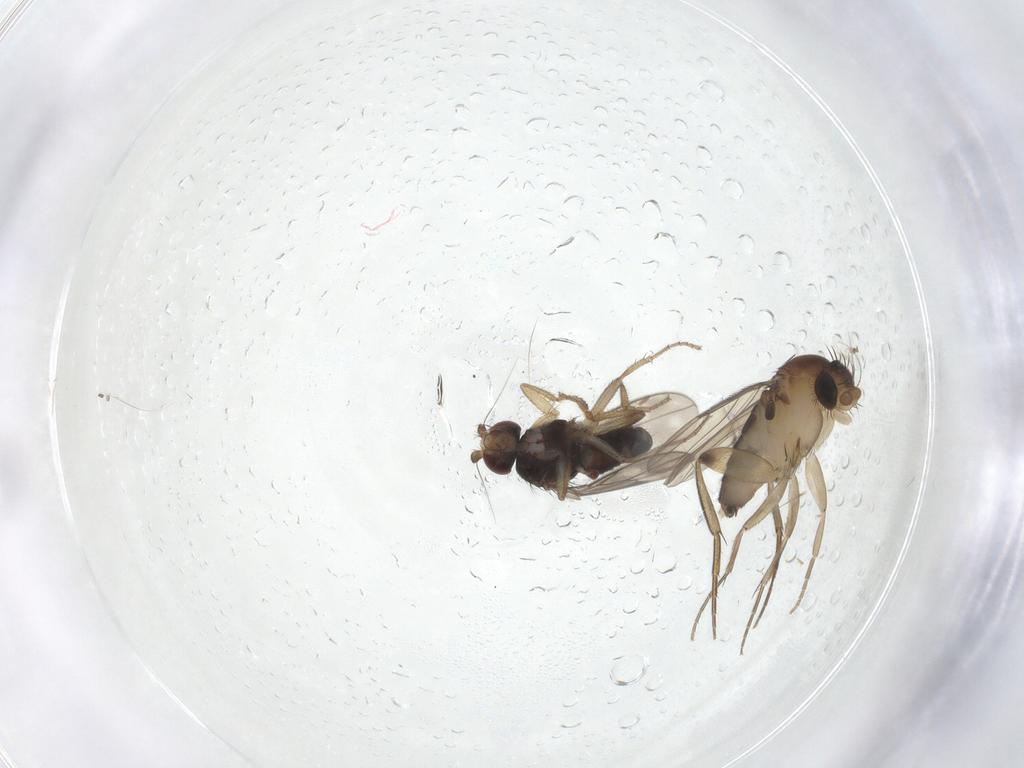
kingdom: Animalia
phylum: Arthropoda
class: Insecta
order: Diptera
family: Sphaeroceridae
